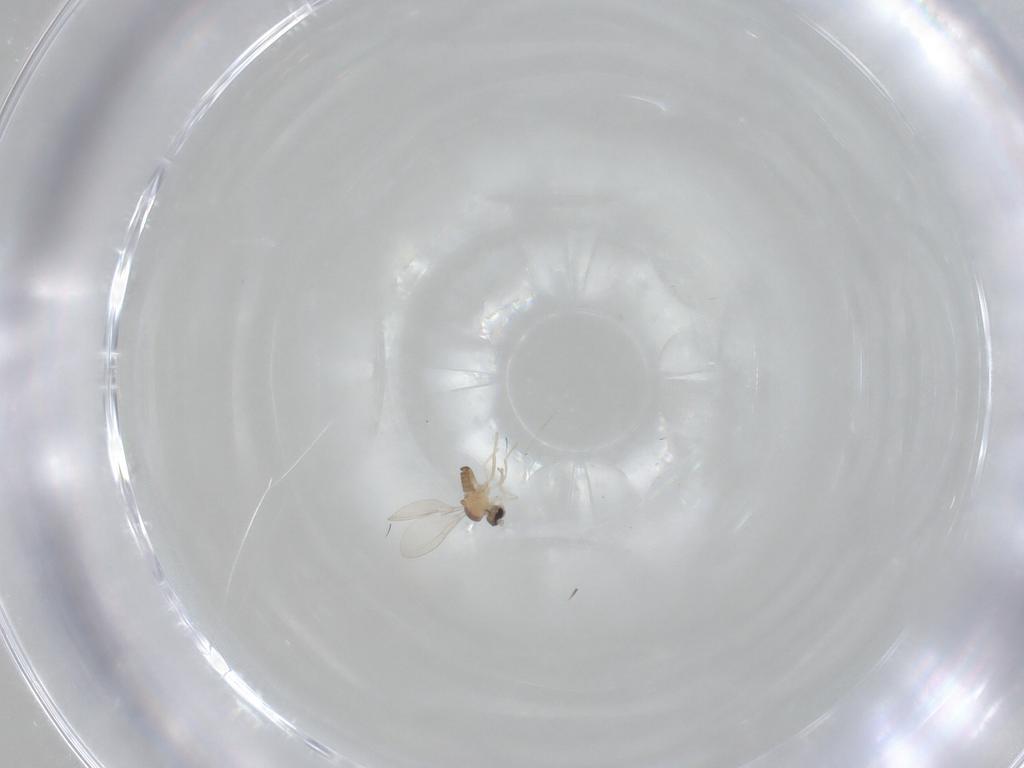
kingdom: Animalia
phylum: Arthropoda
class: Insecta
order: Diptera
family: Cecidomyiidae
